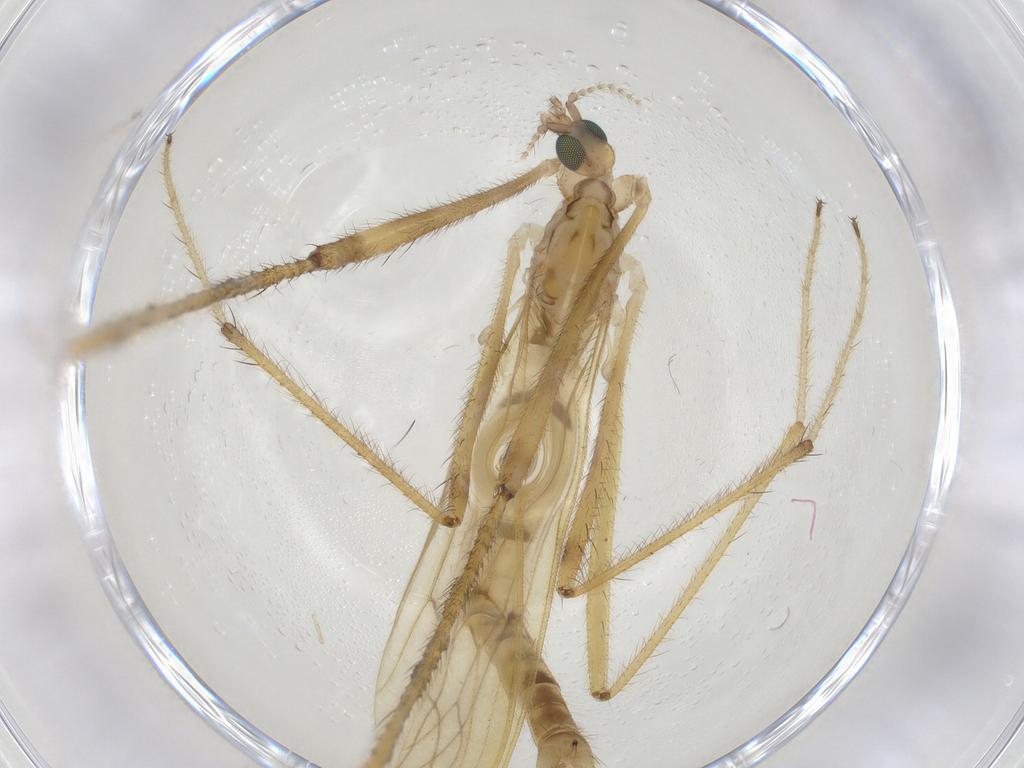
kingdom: Animalia
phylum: Arthropoda
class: Insecta
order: Diptera
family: Limoniidae
